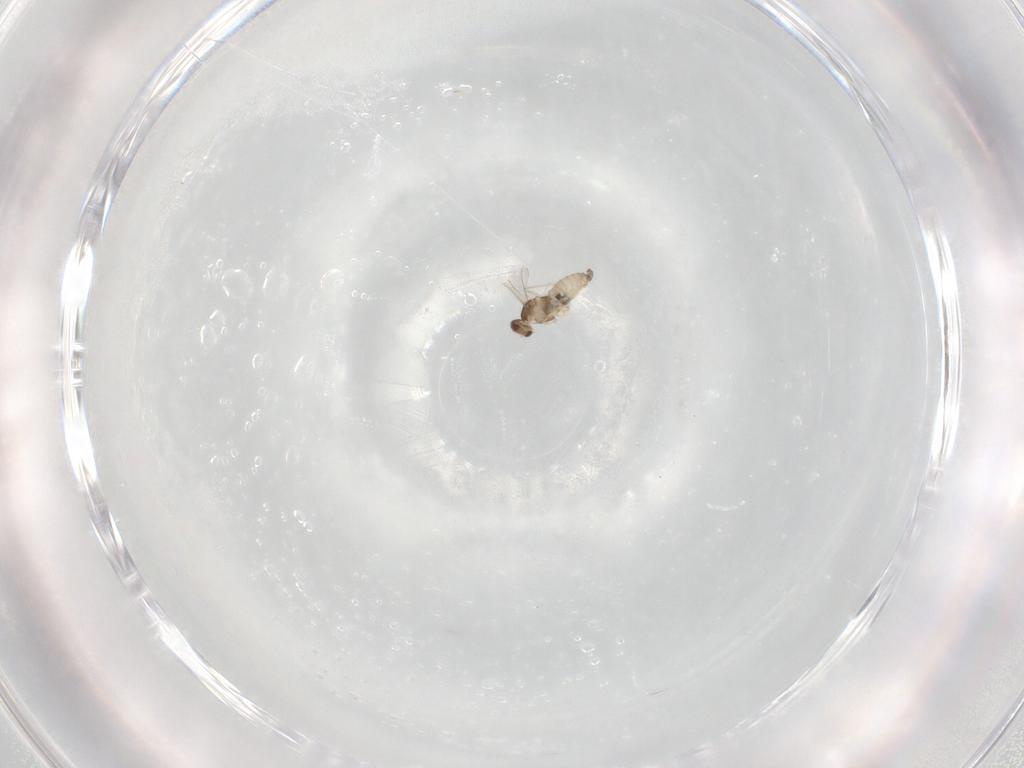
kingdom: Animalia
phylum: Arthropoda
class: Insecta
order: Diptera
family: Cecidomyiidae
